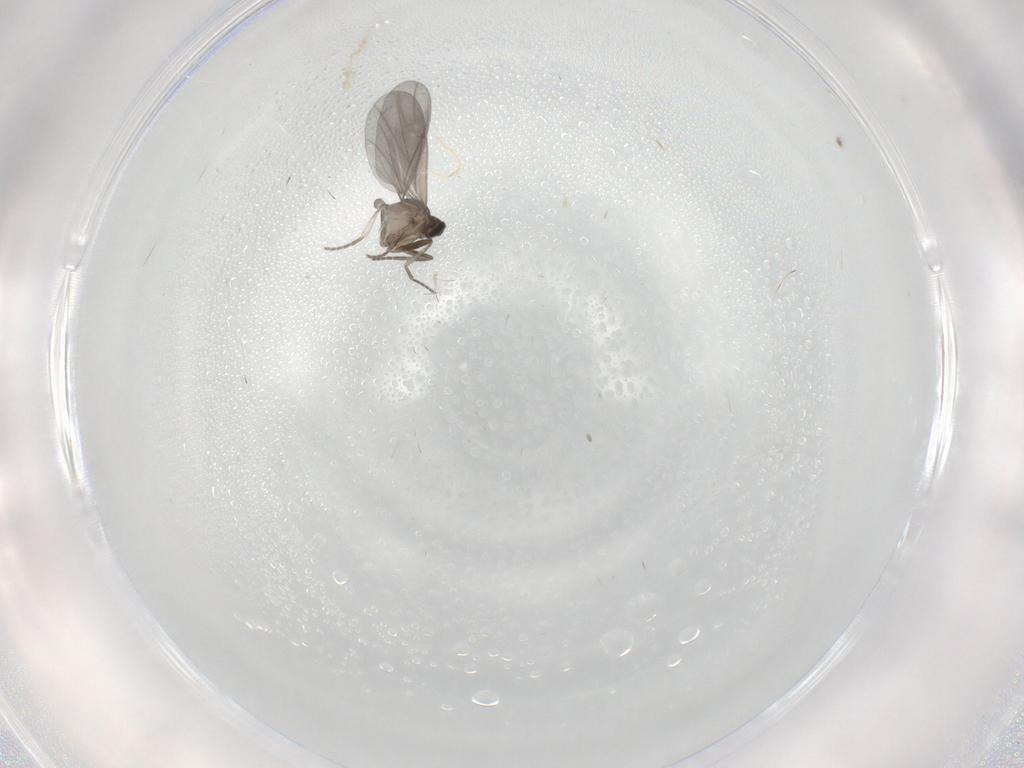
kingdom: Animalia
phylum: Arthropoda
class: Insecta
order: Diptera
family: Phoridae
